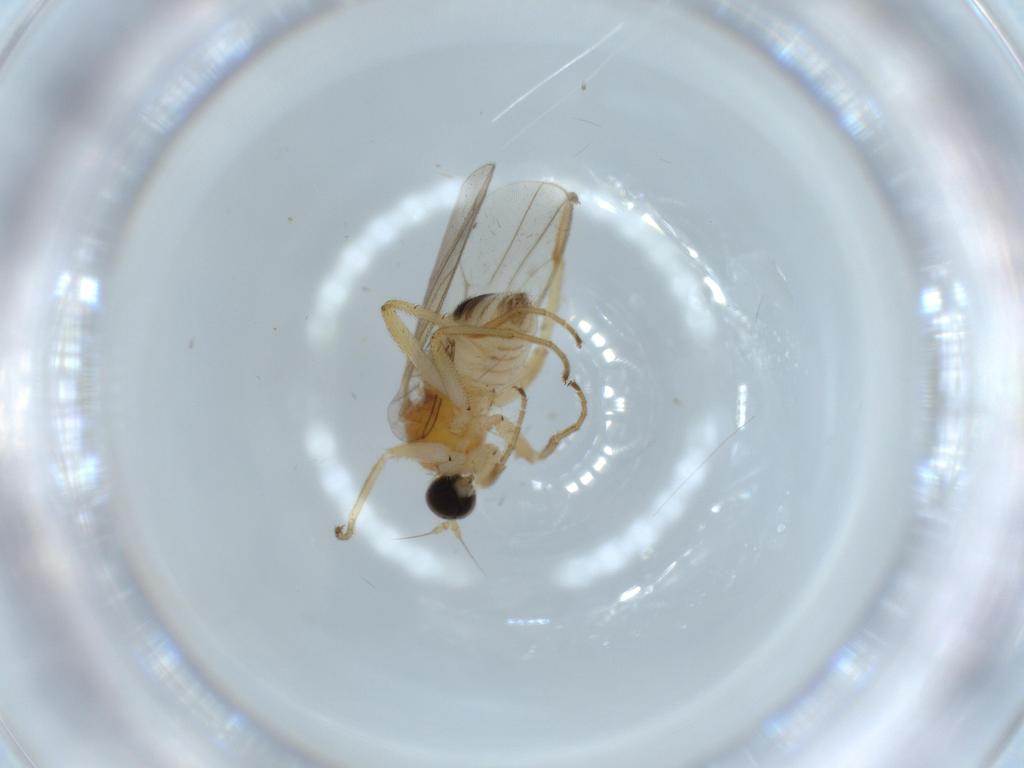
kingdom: Animalia
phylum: Arthropoda
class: Insecta
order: Diptera
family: Hybotidae
